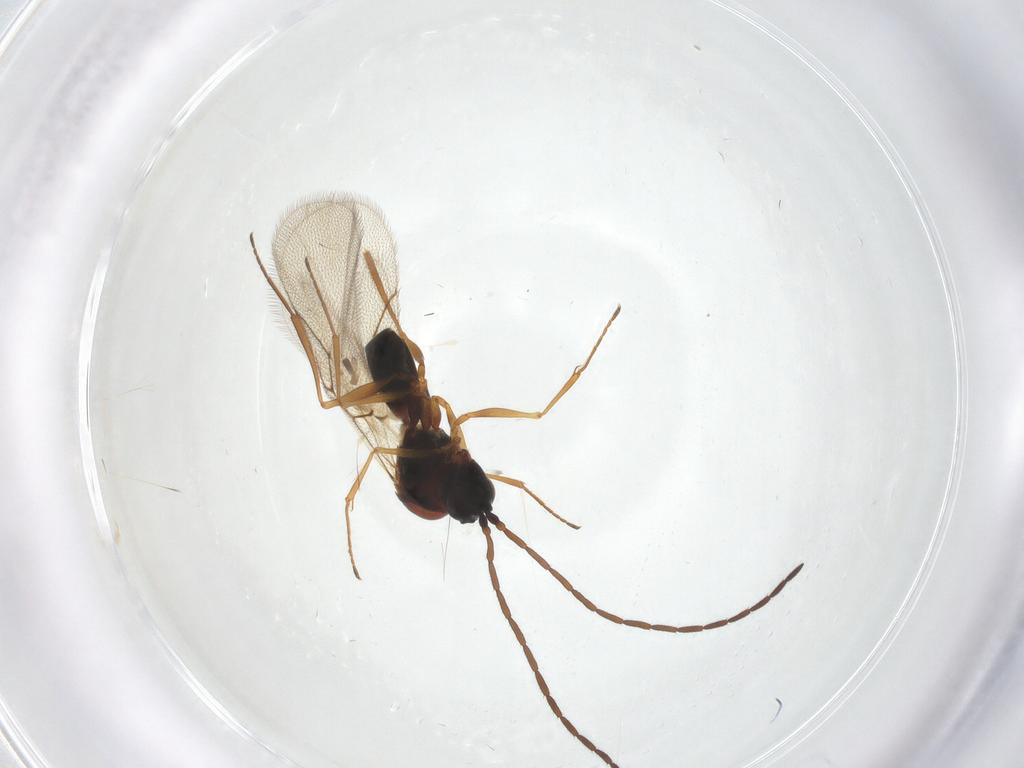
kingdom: Animalia
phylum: Arthropoda
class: Insecta
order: Hymenoptera
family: Figitidae
